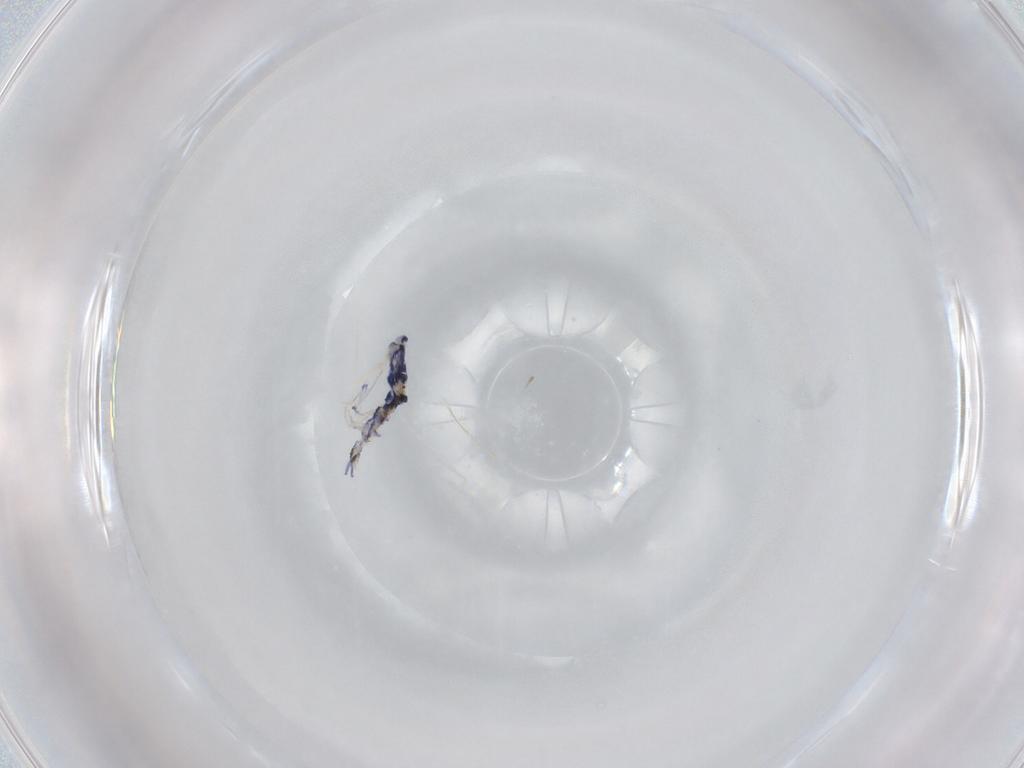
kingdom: Animalia
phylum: Arthropoda
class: Collembola
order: Entomobryomorpha
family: Entomobryidae
